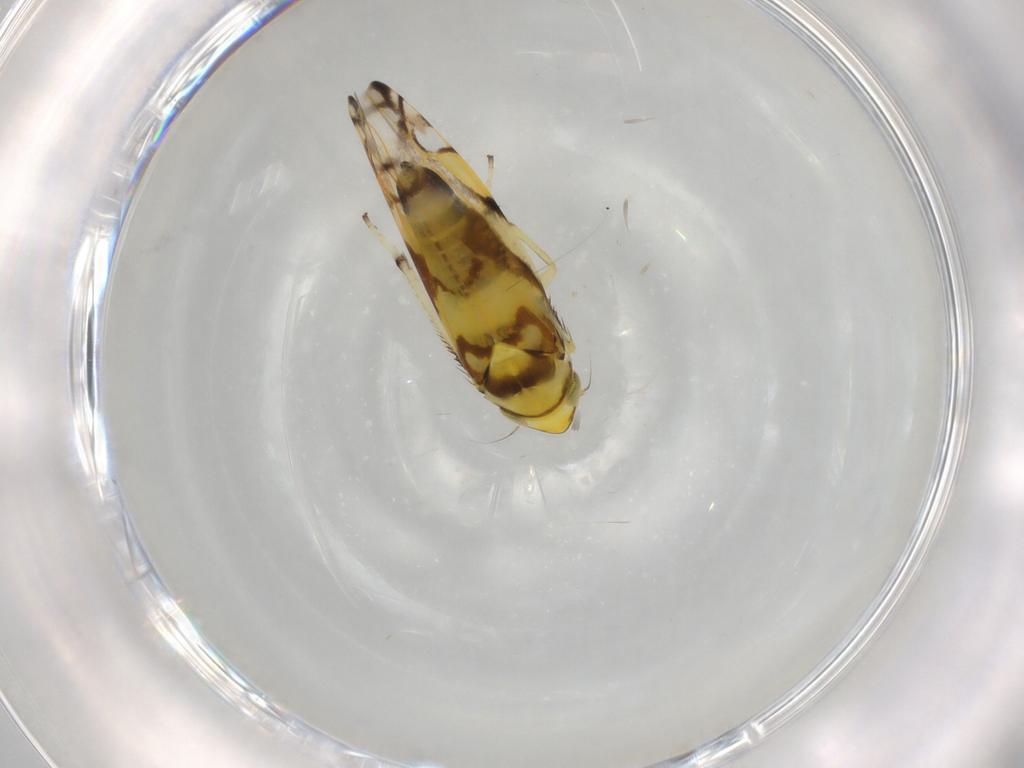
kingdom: Animalia
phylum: Arthropoda
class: Insecta
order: Hemiptera
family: Cicadellidae
